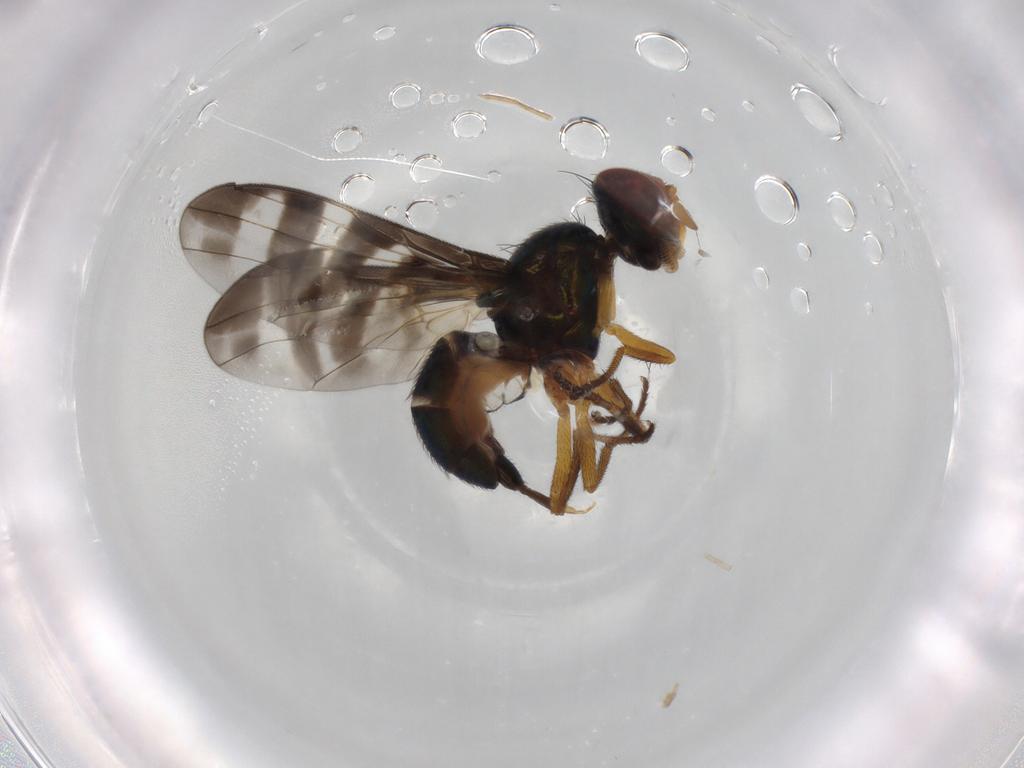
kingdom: Animalia
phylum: Arthropoda
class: Insecta
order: Diptera
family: Platystomatidae
